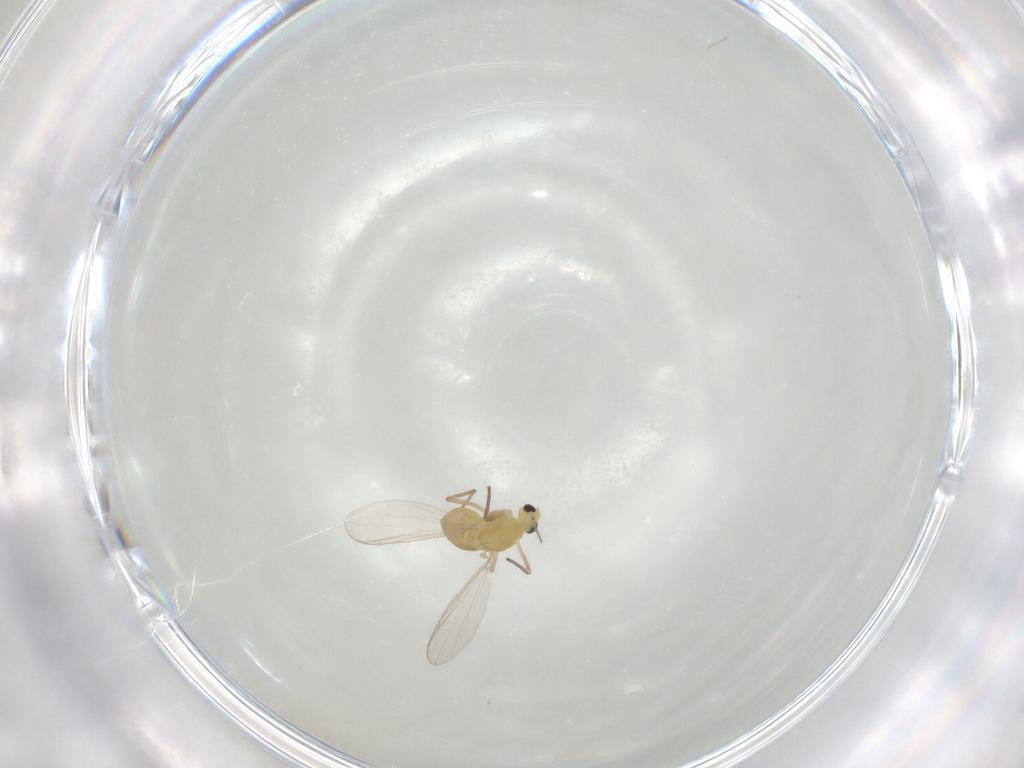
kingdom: Animalia
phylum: Arthropoda
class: Insecta
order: Diptera
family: Chironomidae
